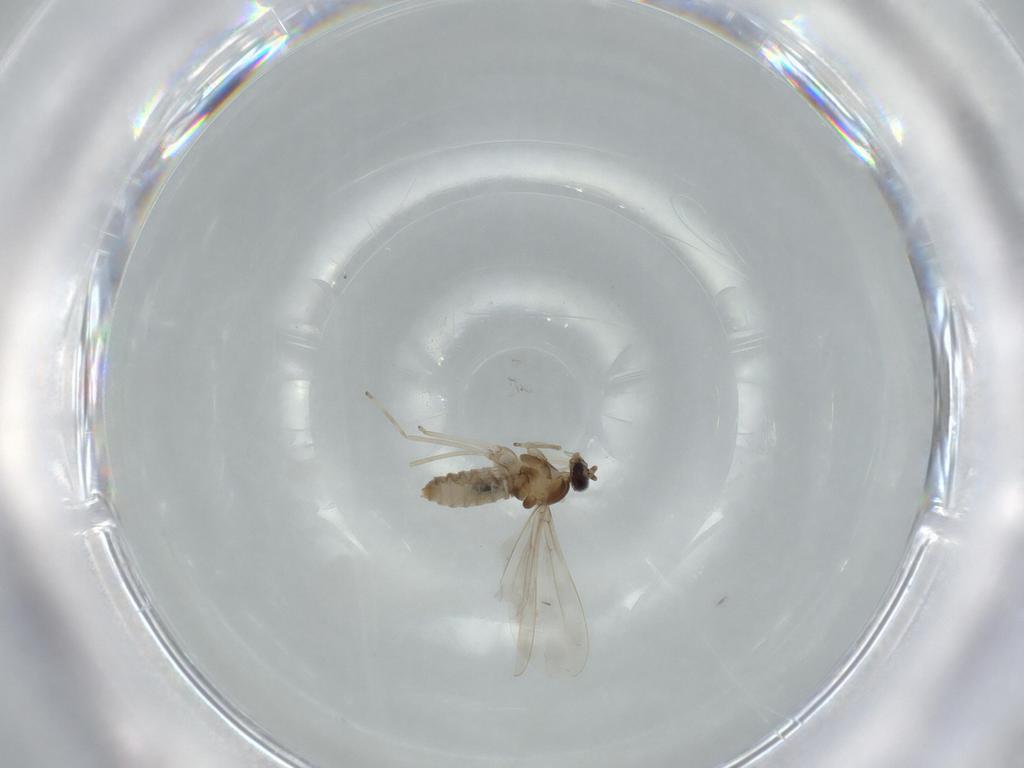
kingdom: Animalia
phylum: Arthropoda
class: Insecta
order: Diptera
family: Cecidomyiidae
